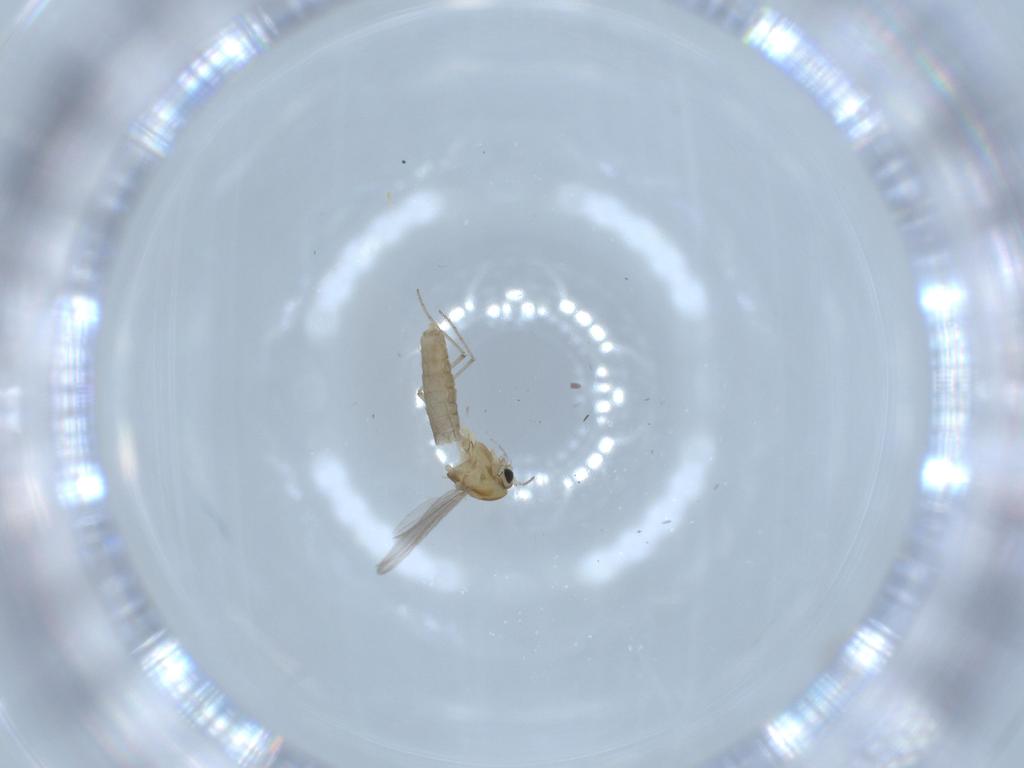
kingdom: Animalia
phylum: Arthropoda
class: Insecta
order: Diptera
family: Chironomidae
